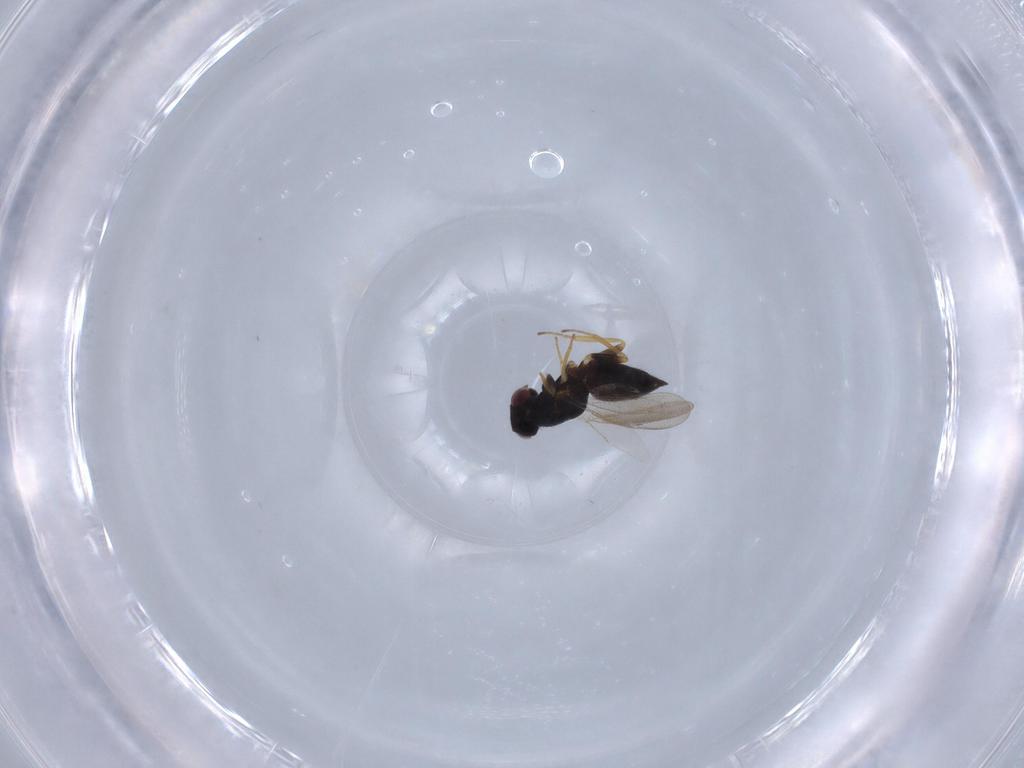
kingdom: Animalia
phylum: Arthropoda
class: Insecta
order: Hymenoptera
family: Eulophidae
